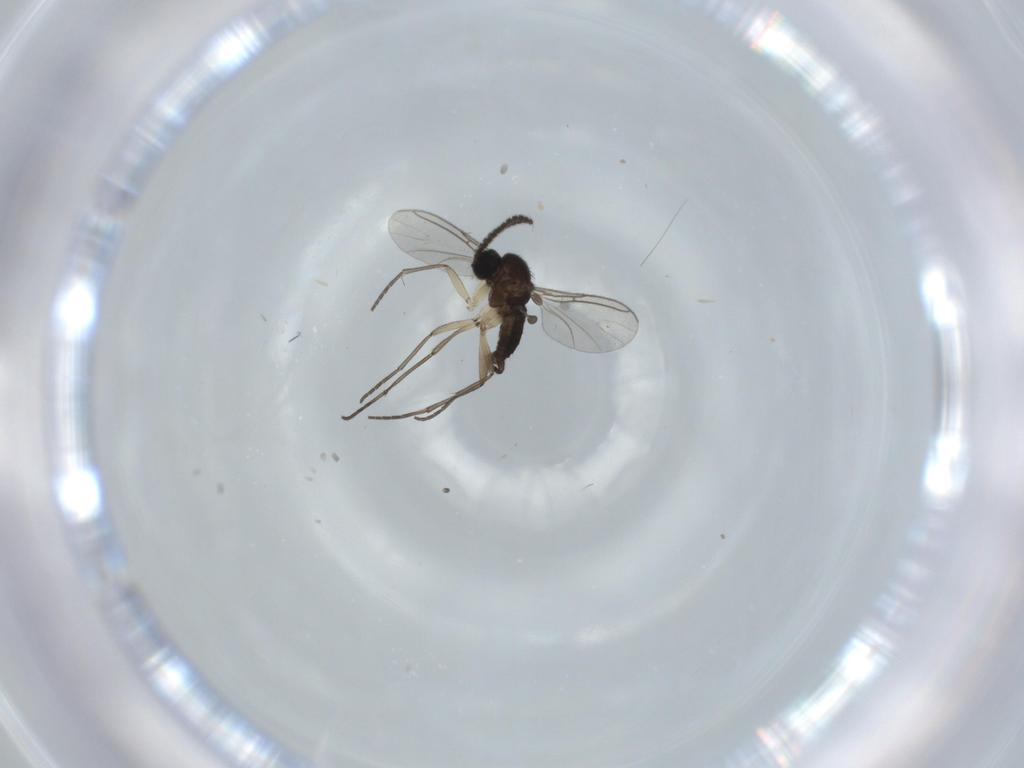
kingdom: Animalia
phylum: Arthropoda
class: Insecta
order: Diptera
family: Sciaridae
